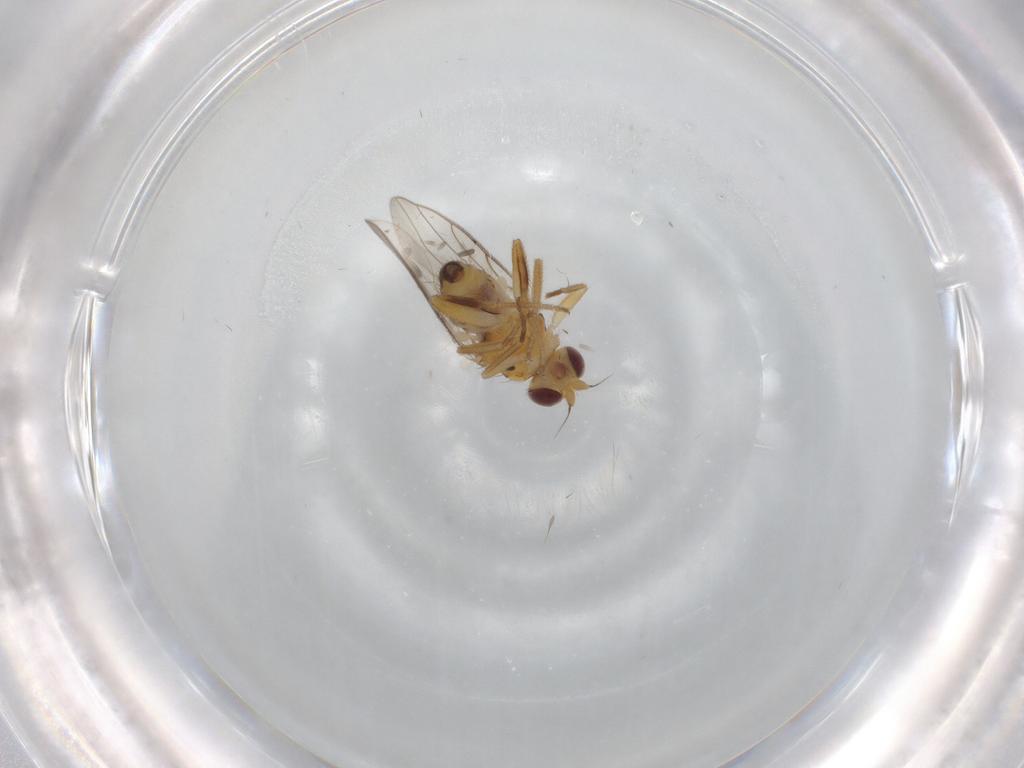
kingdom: Animalia
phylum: Arthropoda
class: Insecta
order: Diptera
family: Chloropidae
